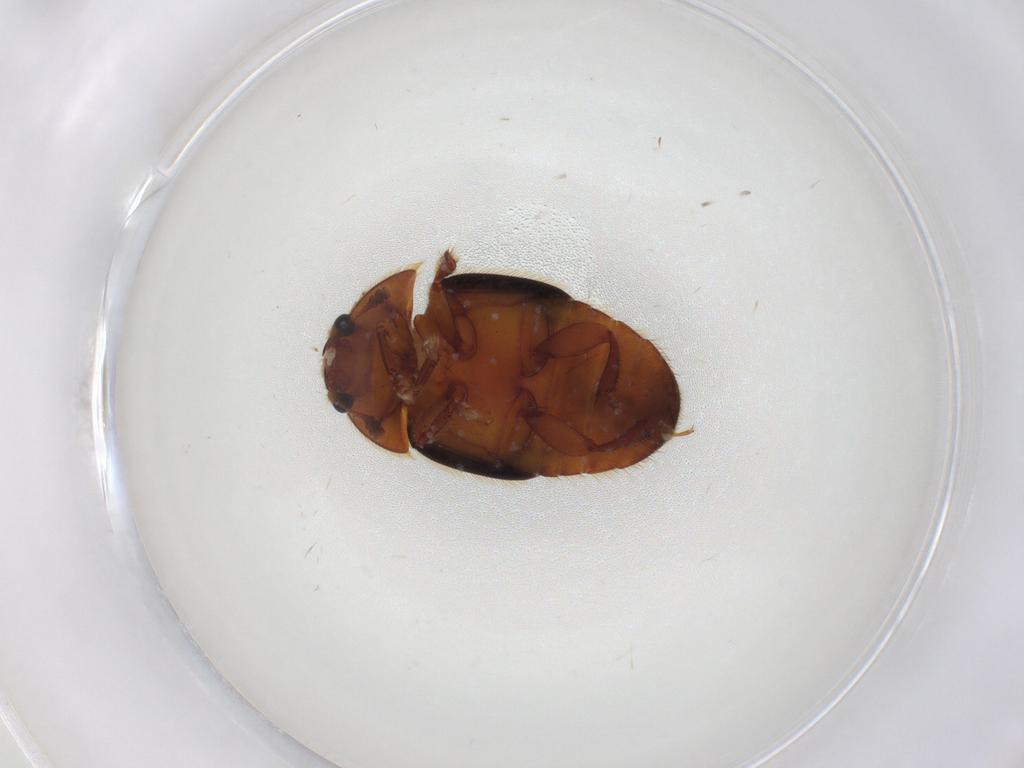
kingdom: Animalia
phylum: Arthropoda
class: Insecta
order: Coleoptera
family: Nitidulidae
